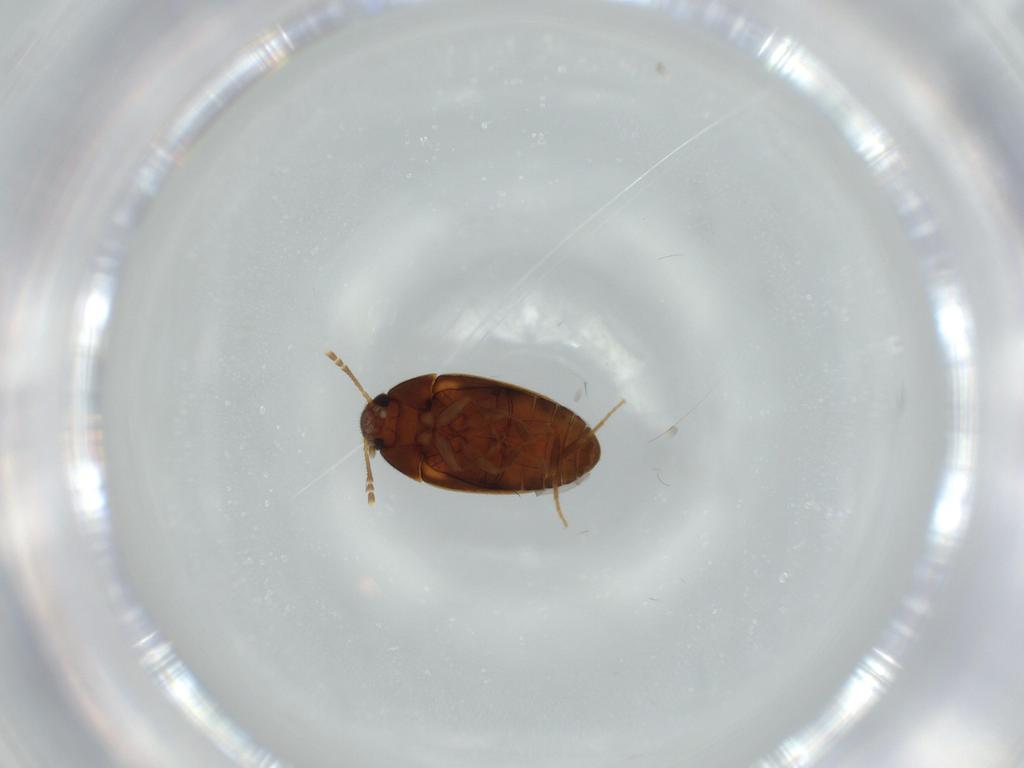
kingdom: Animalia
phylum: Arthropoda
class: Insecta
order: Coleoptera
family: Mycetophagidae
